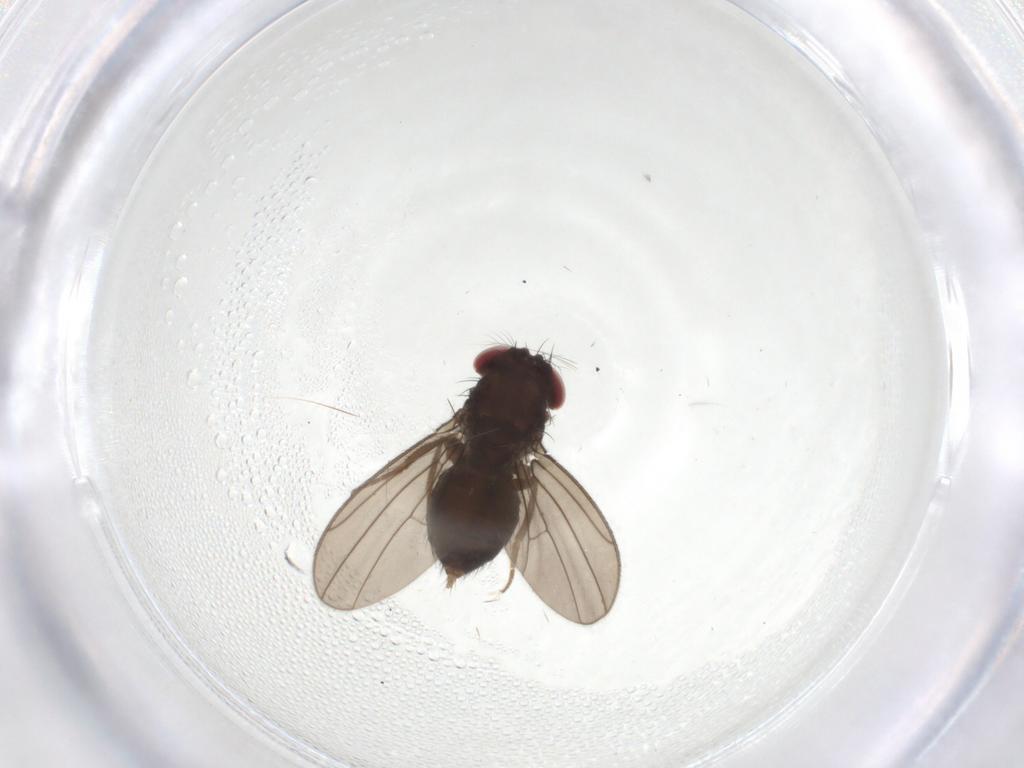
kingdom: Animalia
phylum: Arthropoda
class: Insecta
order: Diptera
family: Drosophilidae
